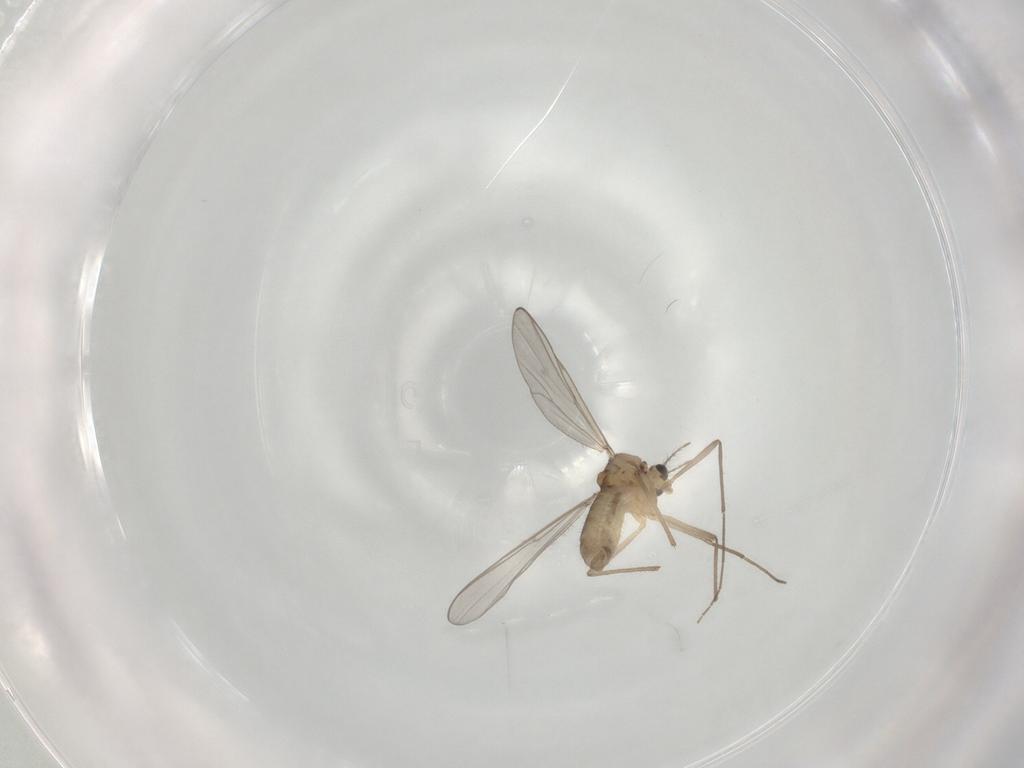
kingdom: Animalia
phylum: Arthropoda
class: Insecta
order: Diptera
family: Chironomidae
